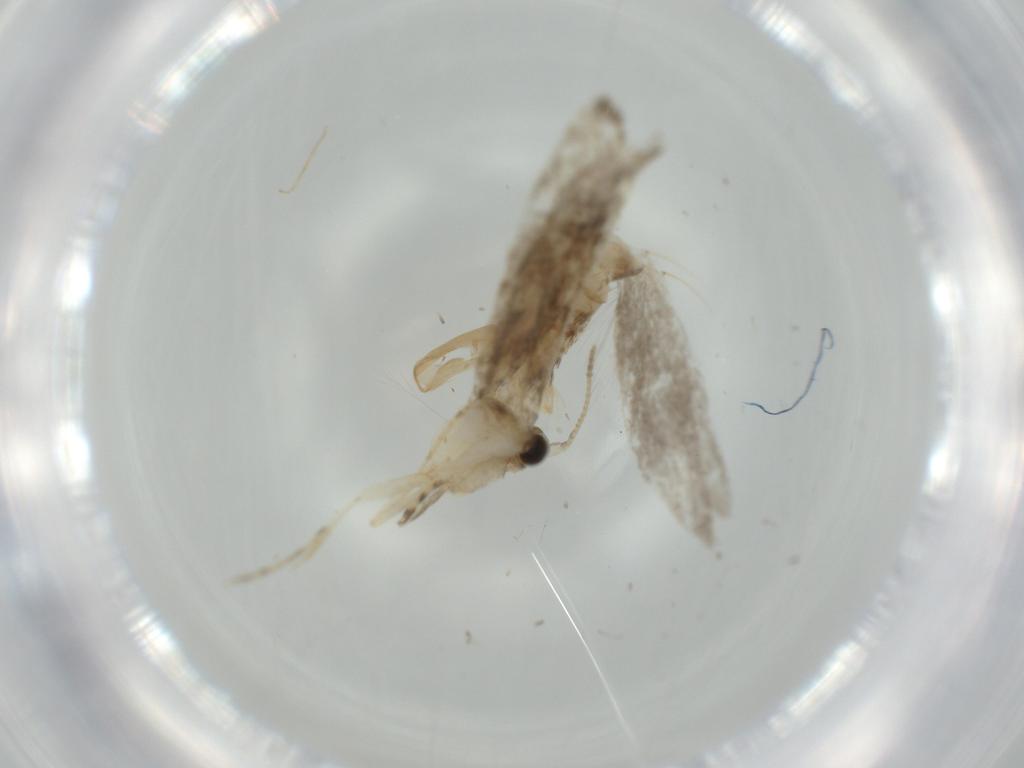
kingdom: Animalia
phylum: Arthropoda
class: Insecta
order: Lepidoptera
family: Tineidae
